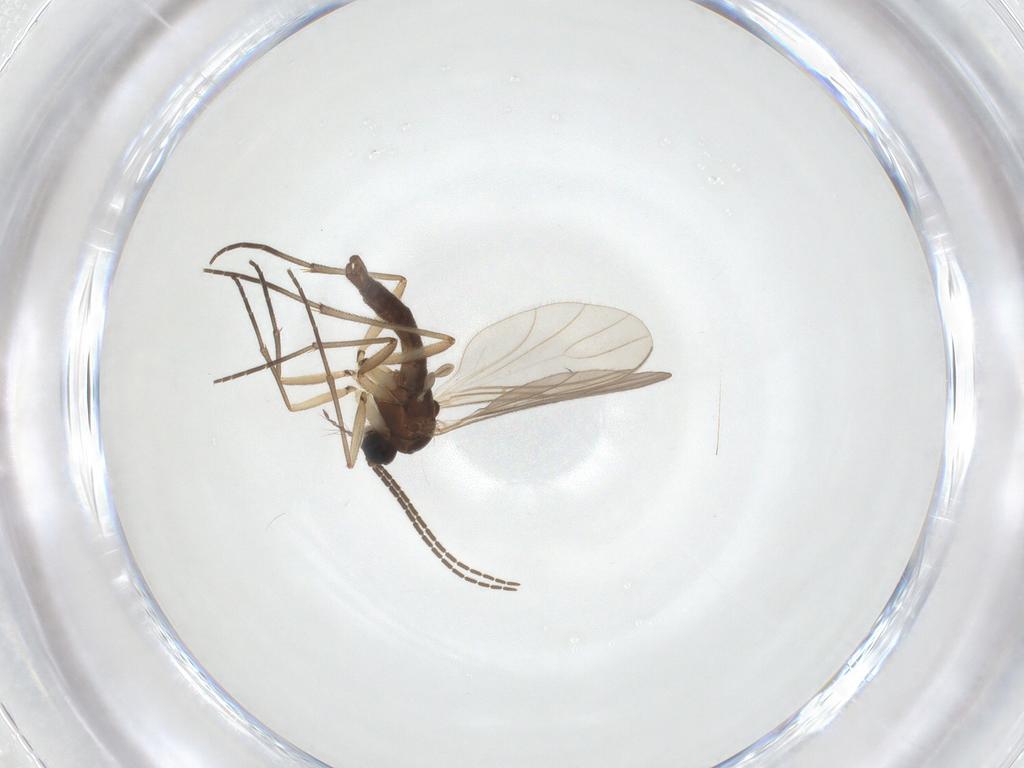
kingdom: Animalia
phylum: Arthropoda
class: Insecta
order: Diptera
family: Sciaridae
